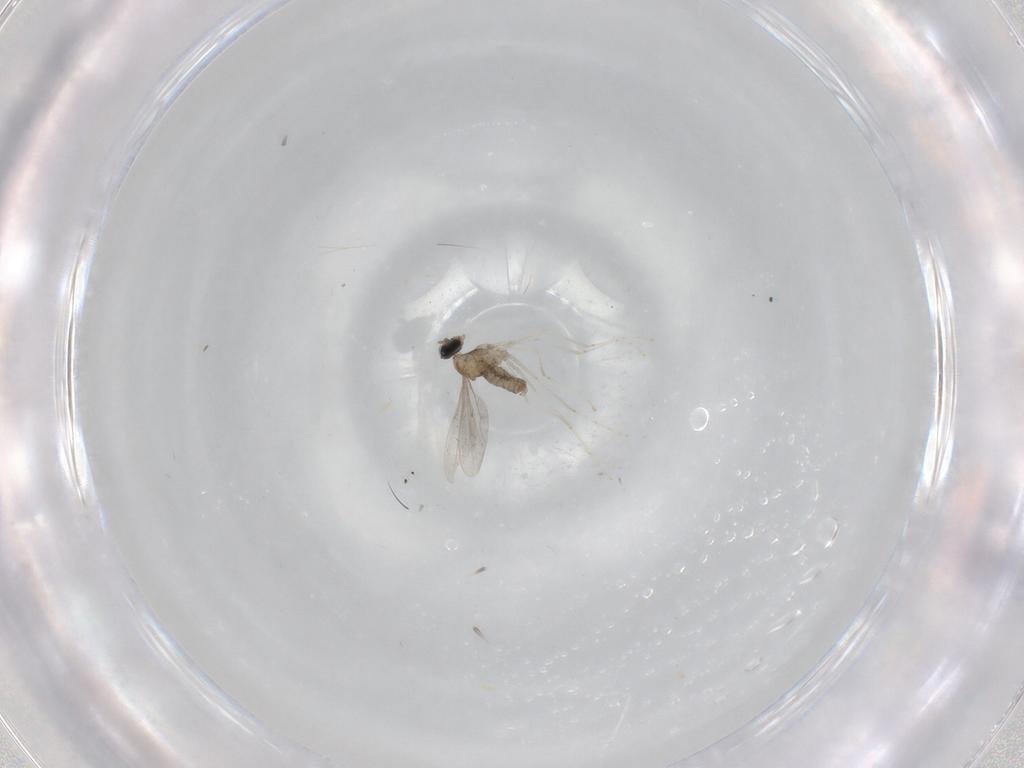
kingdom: Animalia
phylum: Arthropoda
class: Insecta
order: Diptera
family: Cecidomyiidae
